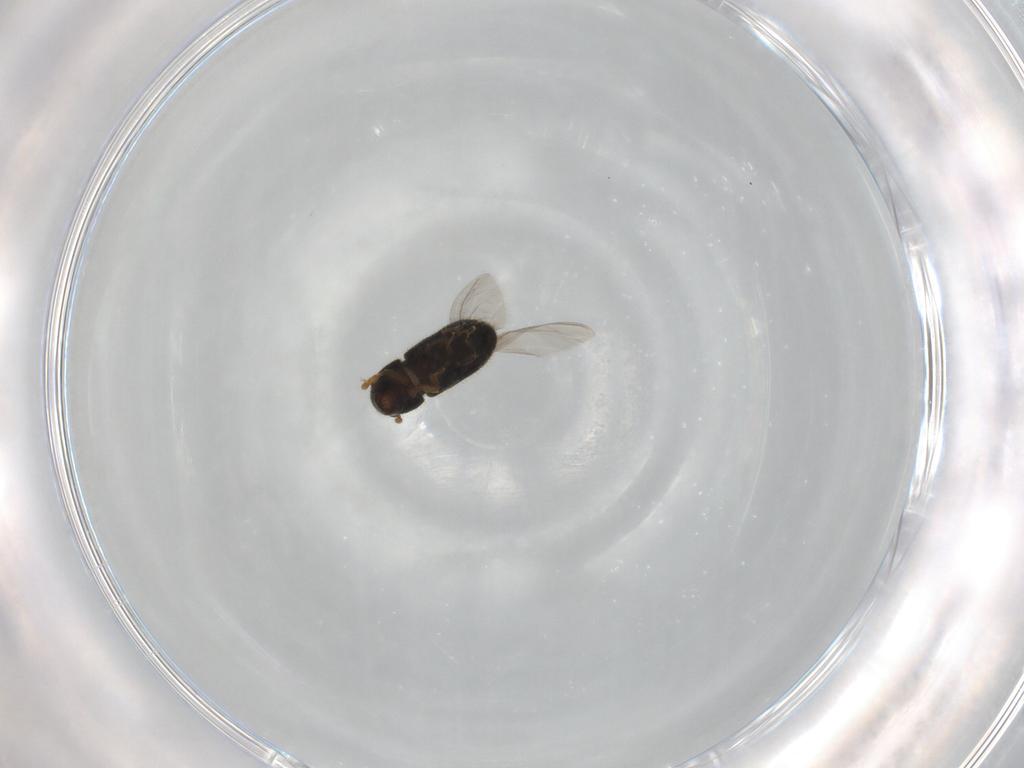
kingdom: Animalia
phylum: Arthropoda
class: Insecta
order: Coleoptera
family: Curculionidae
